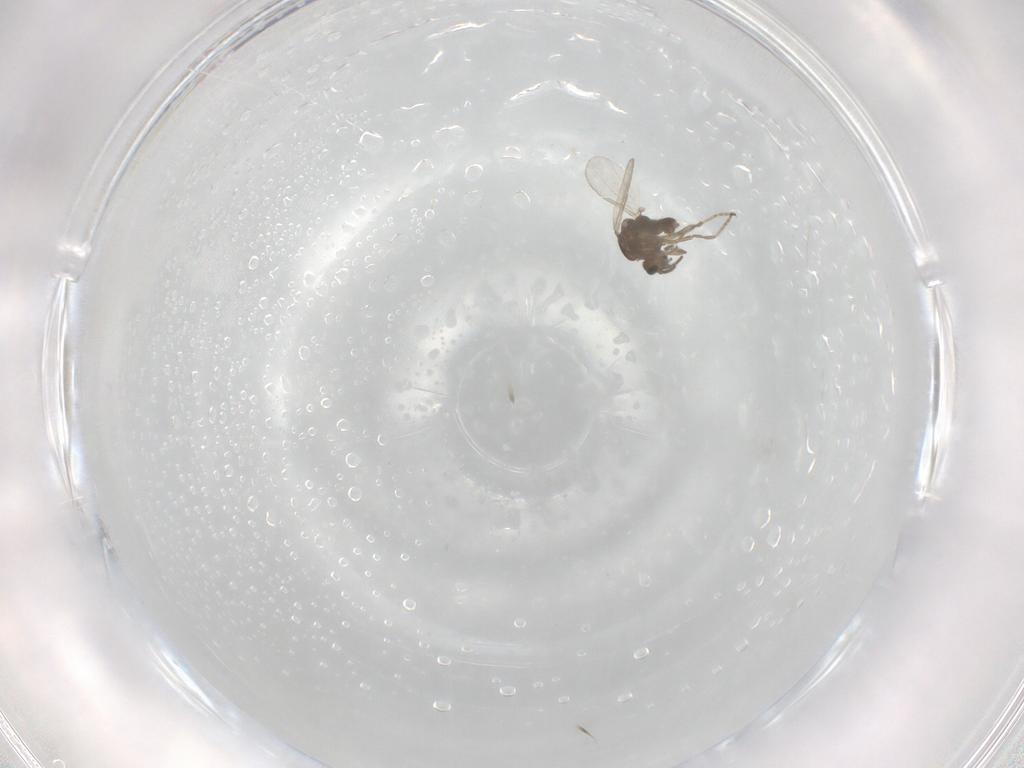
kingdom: Animalia
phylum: Arthropoda
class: Insecta
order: Diptera
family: Ceratopogonidae
